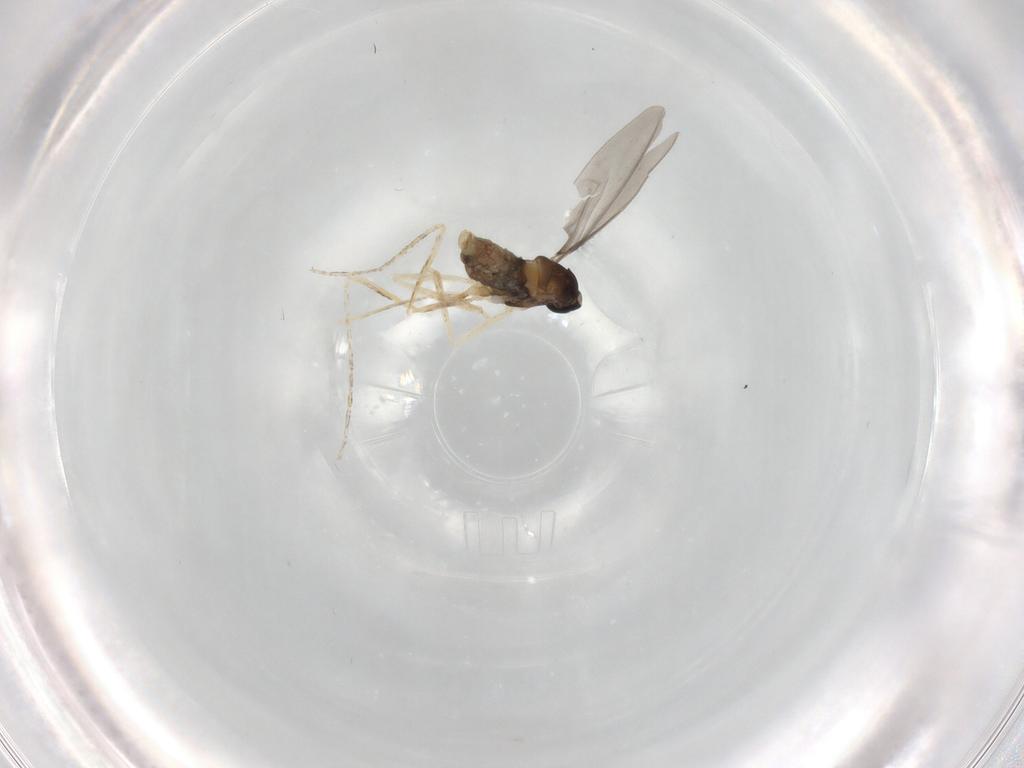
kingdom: Animalia
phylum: Arthropoda
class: Insecta
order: Diptera
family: Cecidomyiidae
